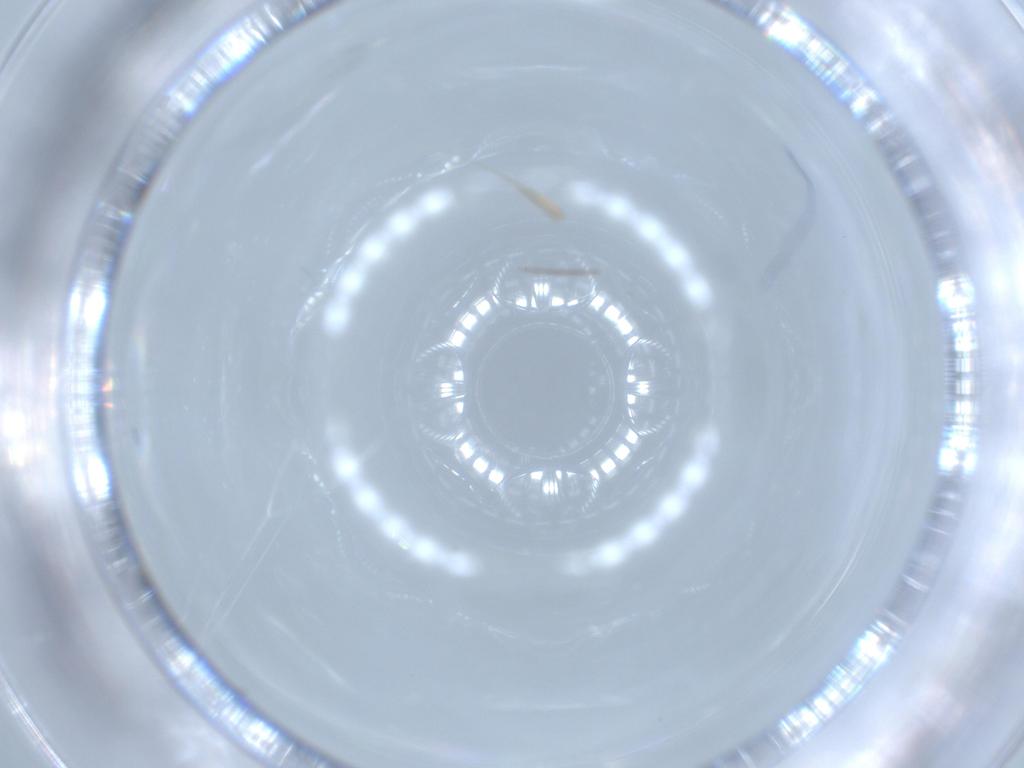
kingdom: Animalia
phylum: Arthropoda
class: Insecta
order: Diptera
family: Chironomidae
